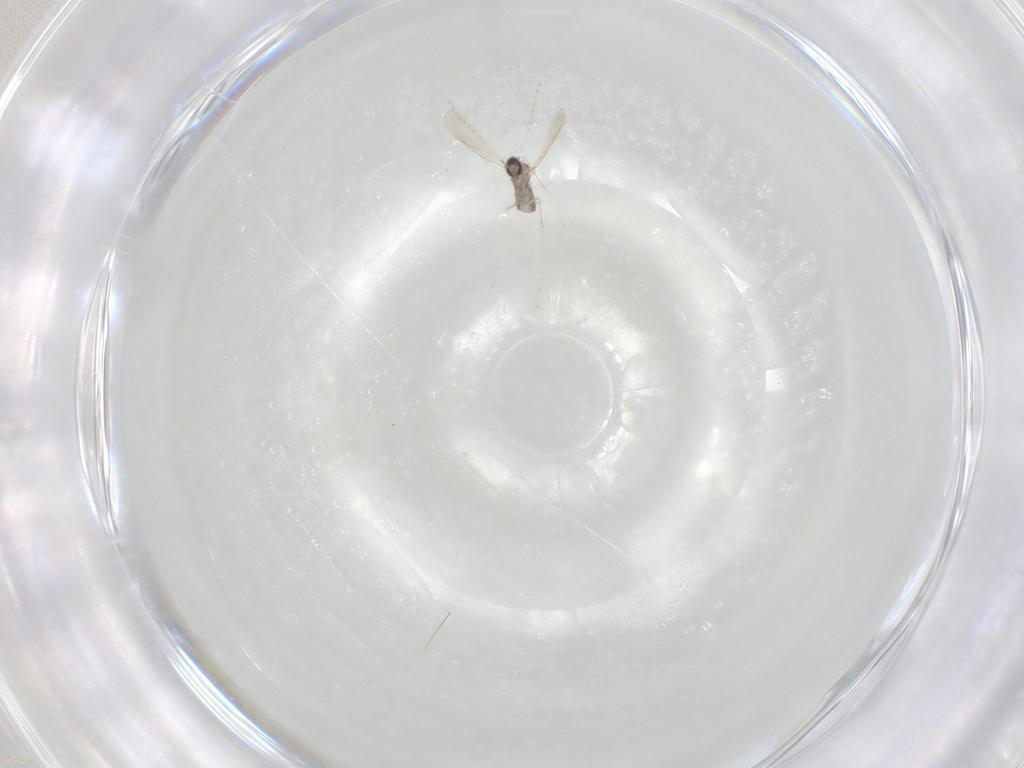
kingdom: Animalia
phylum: Arthropoda
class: Insecta
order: Diptera
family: Cecidomyiidae
